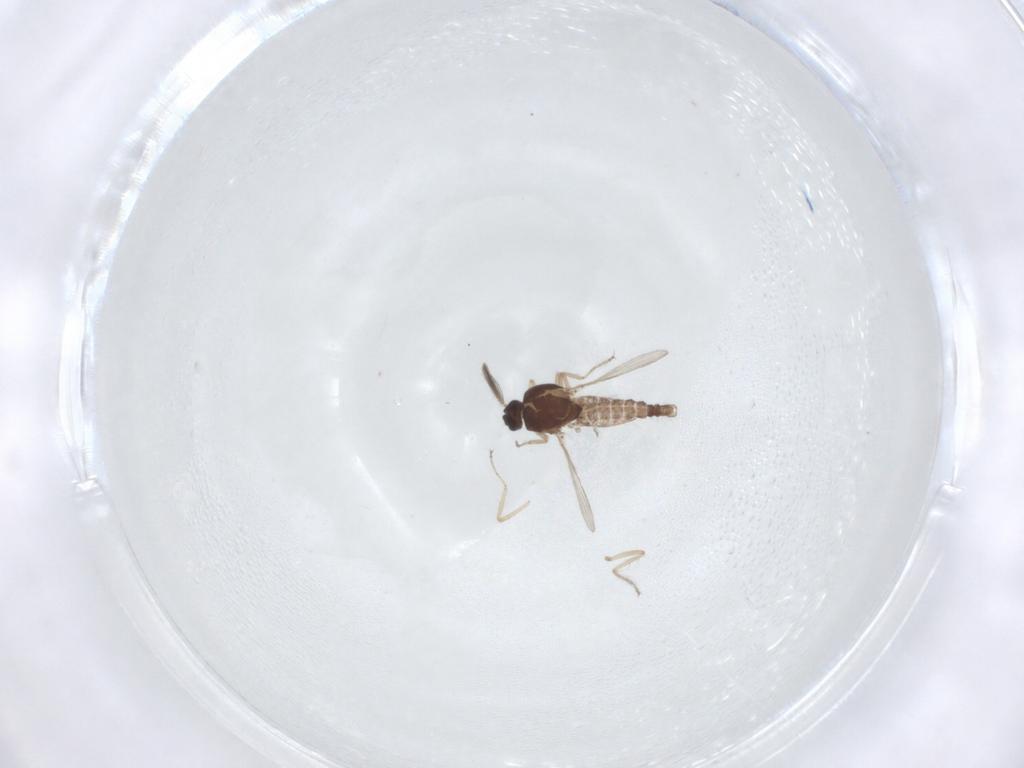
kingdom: Animalia
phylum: Arthropoda
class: Insecta
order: Diptera
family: Ceratopogonidae
